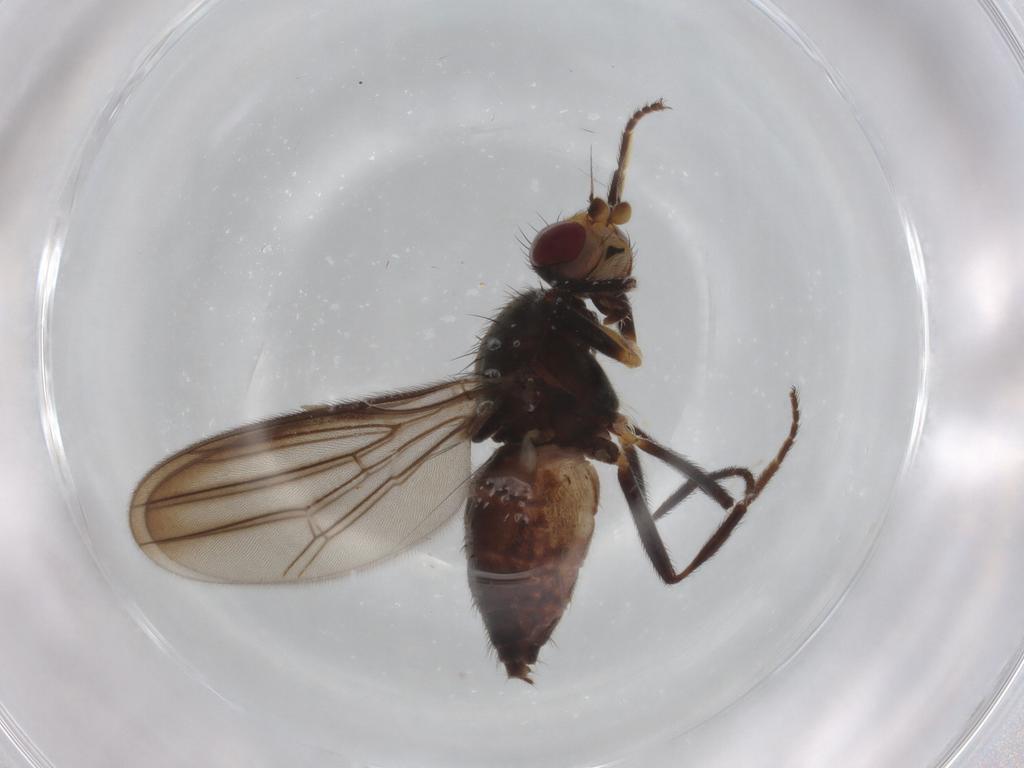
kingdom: Animalia
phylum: Arthropoda
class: Insecta
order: Diptera
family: Chloropidae
